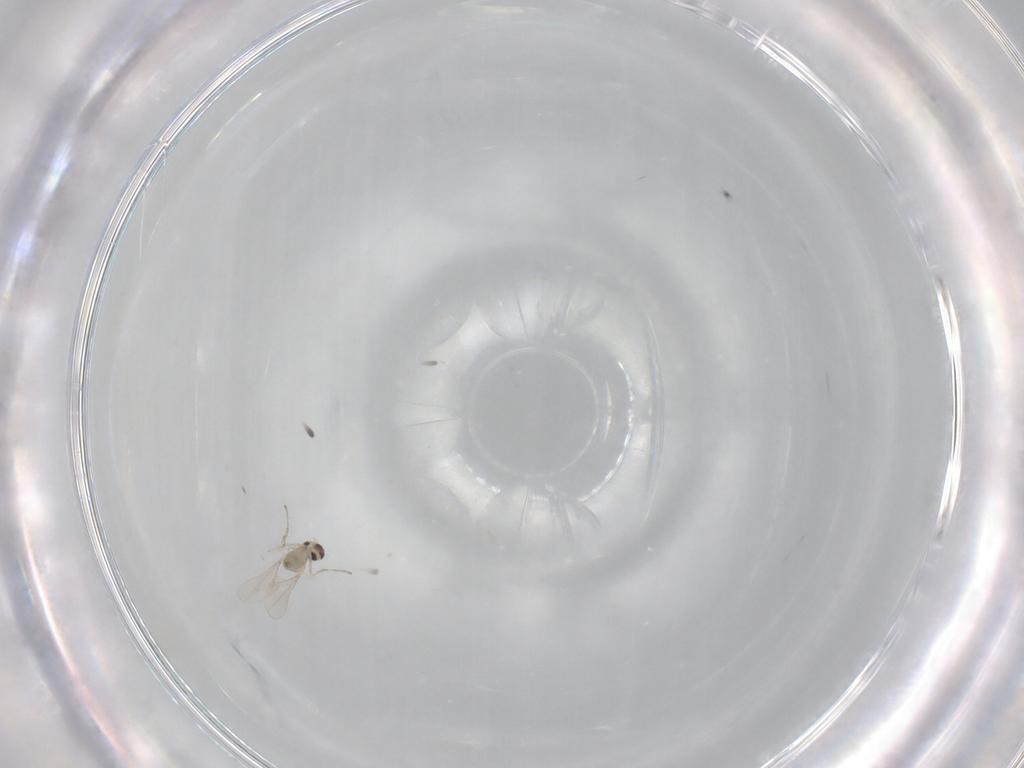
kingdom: Animalia
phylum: Arthropoda
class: Insecta
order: Diptera
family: Cecidomyiidae
